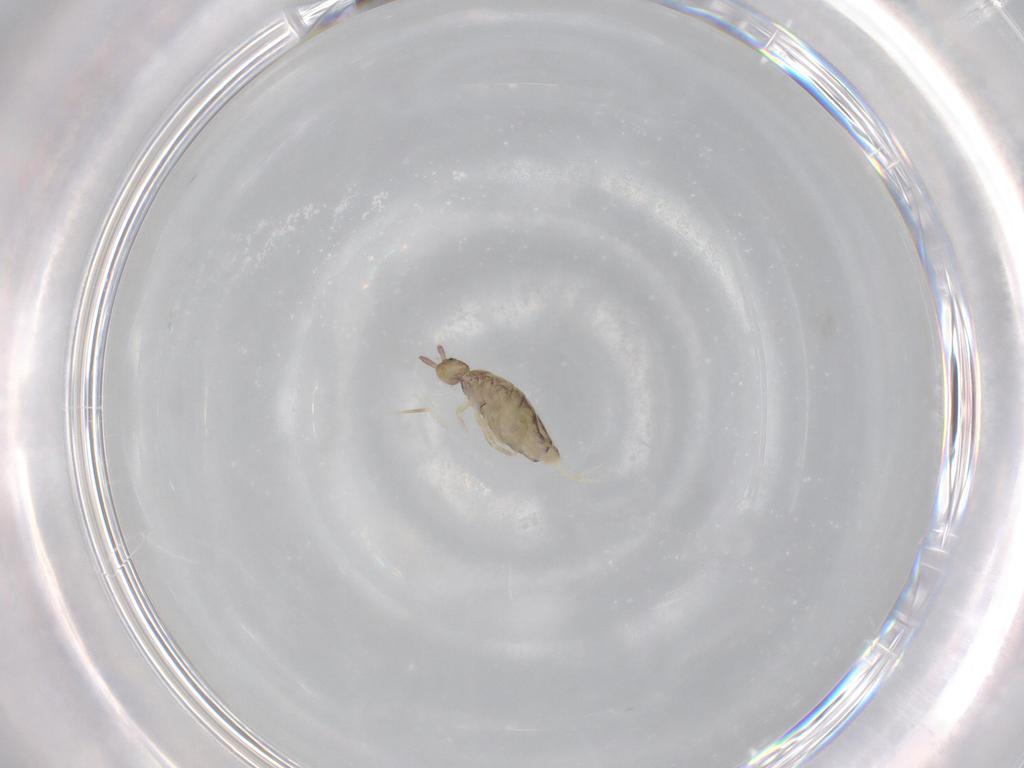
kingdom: Animalia
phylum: Arthropoda
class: Collembola
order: Entomobryomorpha
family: Entomobryidae
